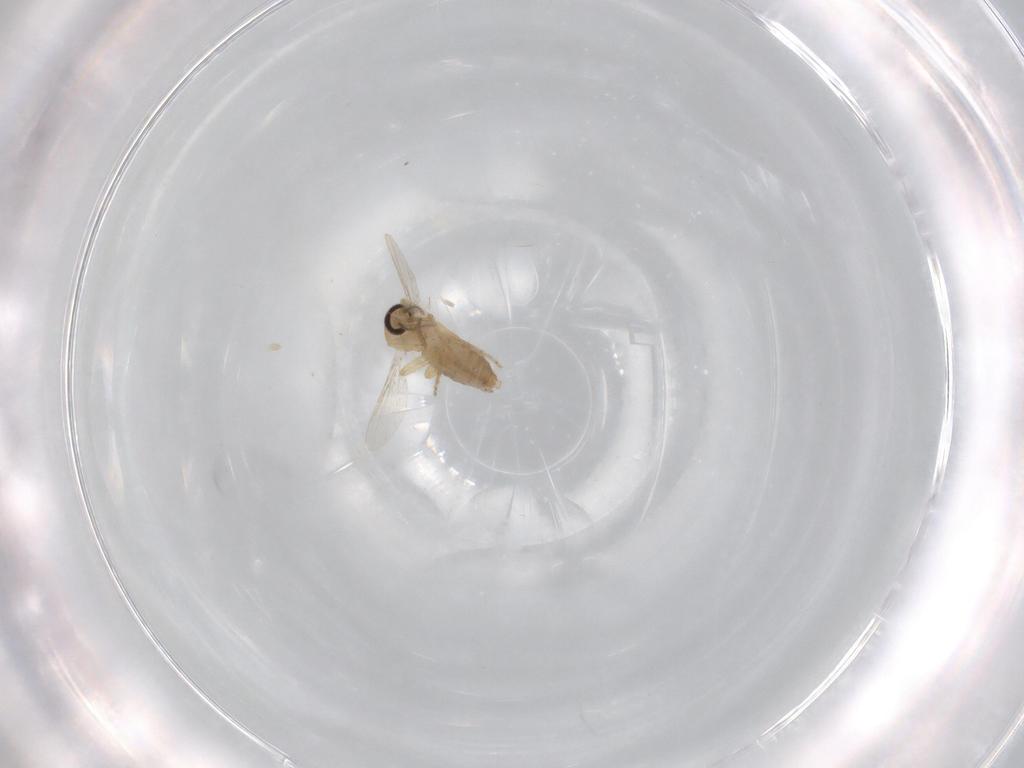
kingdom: Animalia
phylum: Arthropoda
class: Insecta
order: Diptera
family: Ceratopogonidae
